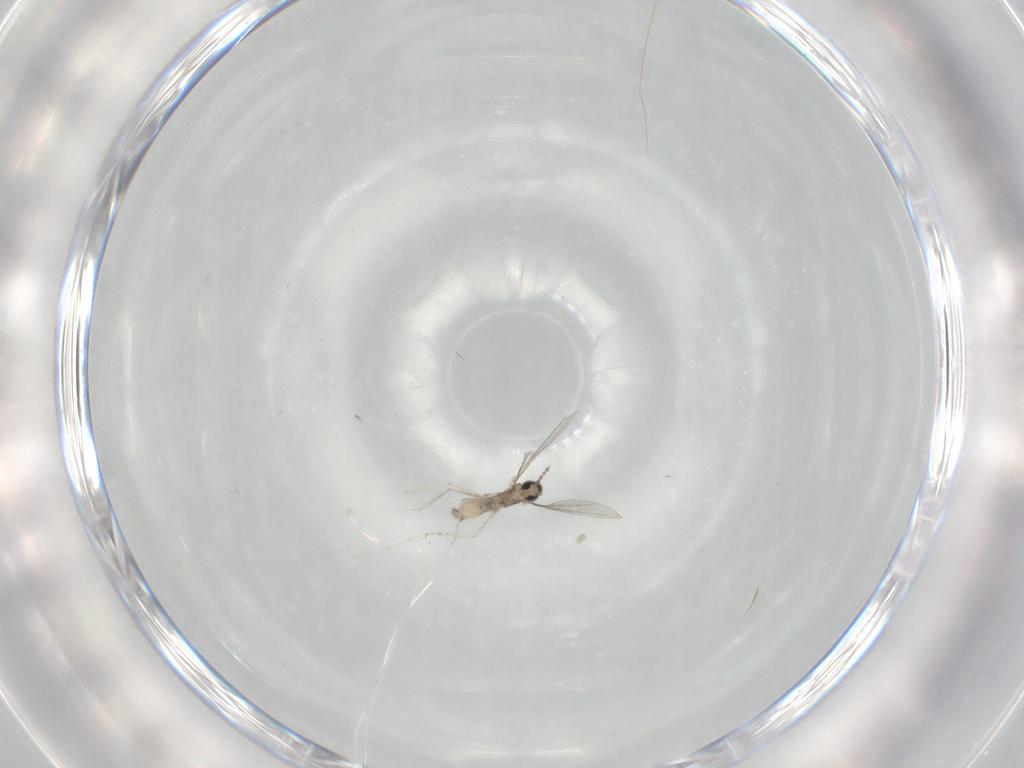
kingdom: Animalia
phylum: Arthropoda
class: Insecta
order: Diptera
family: Cecidomyiidae
